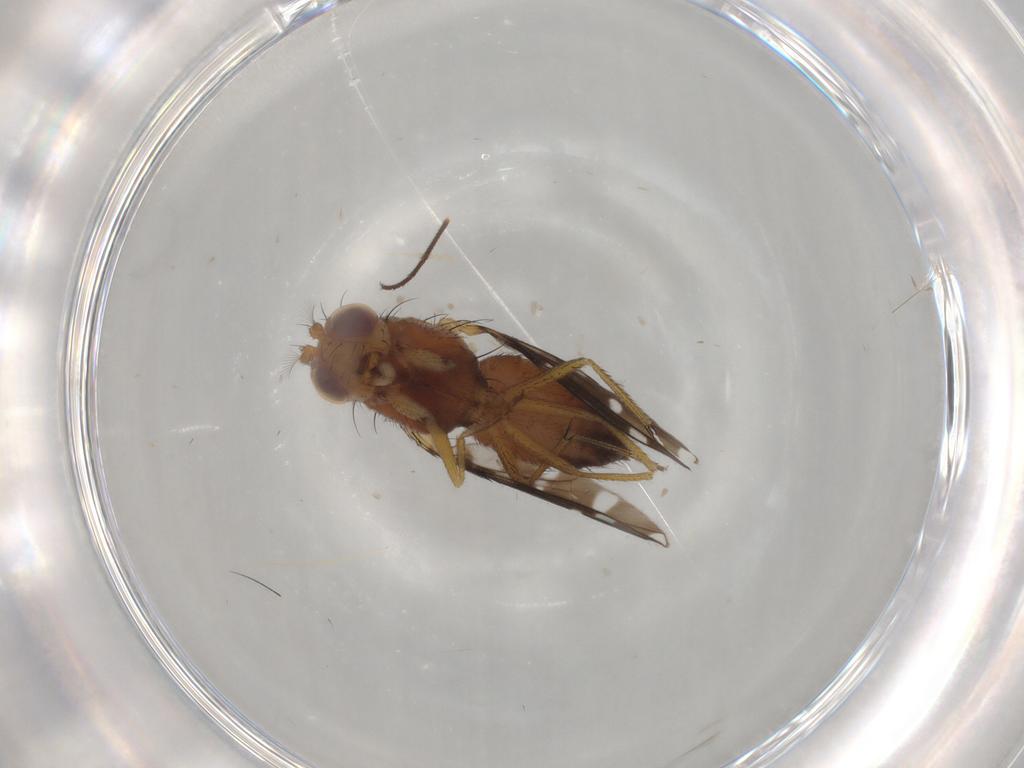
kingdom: Animalia
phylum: Arthropoda
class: Insecta
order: Diptera
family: Ephydridae
